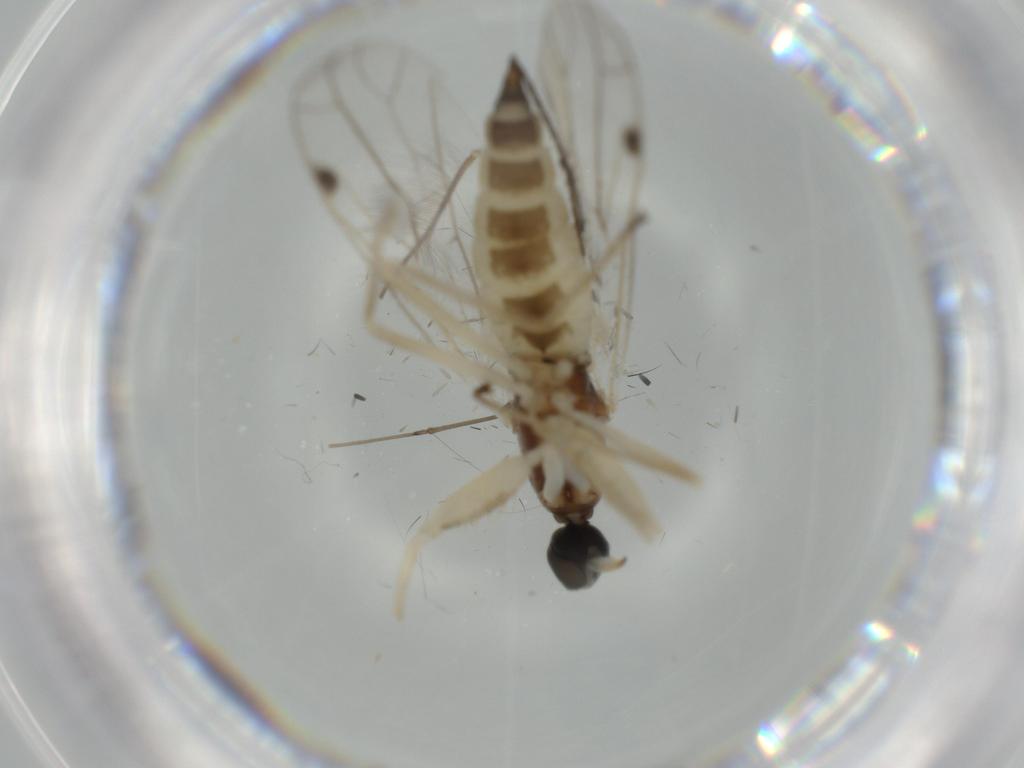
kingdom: Animalia
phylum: Arthropoda
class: Insecta
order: Diptera
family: Empididae
